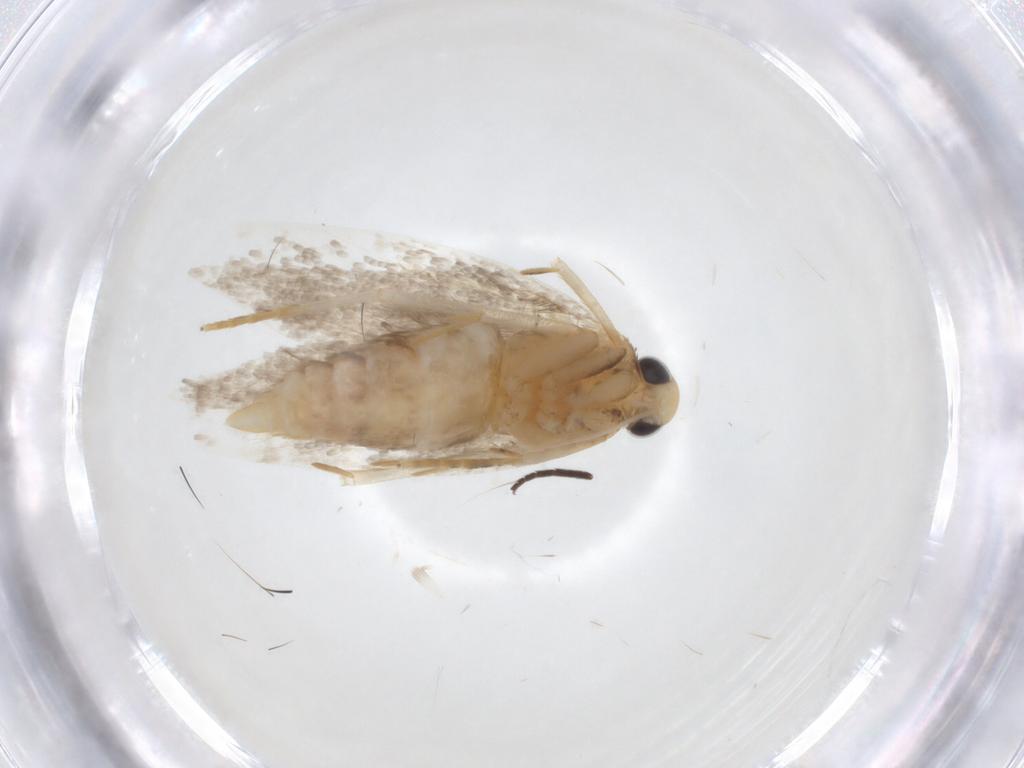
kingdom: Animalia
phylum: Arthropoda
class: Insecta
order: Lepidoptera
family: Autostichidae
